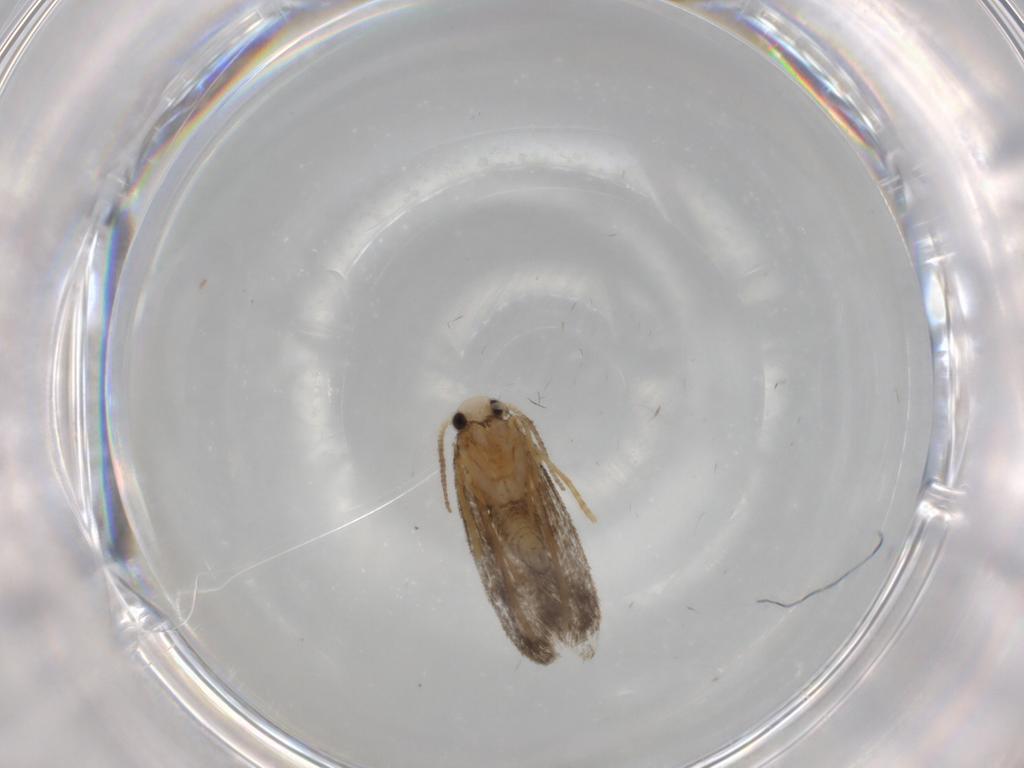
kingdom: Animalia
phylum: Arthropoda
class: Insecta
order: Lepidoptera
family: Psychidae
